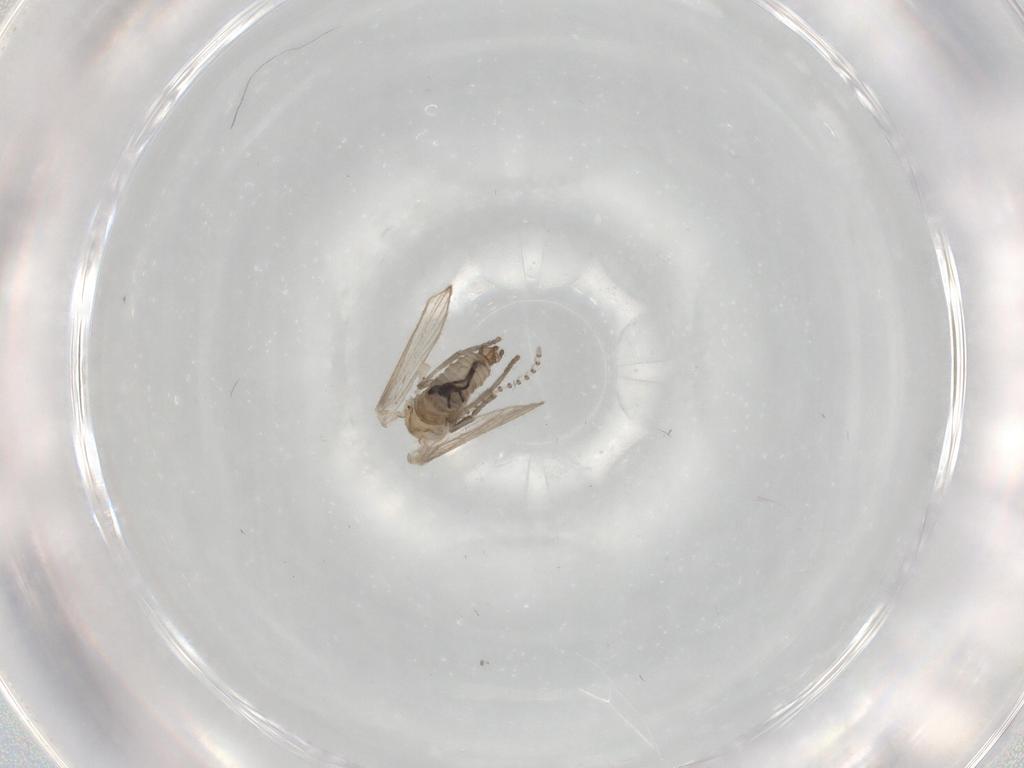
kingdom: Animalia
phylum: Arthropoda
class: Insecta
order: Diptera
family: Psychodidae
